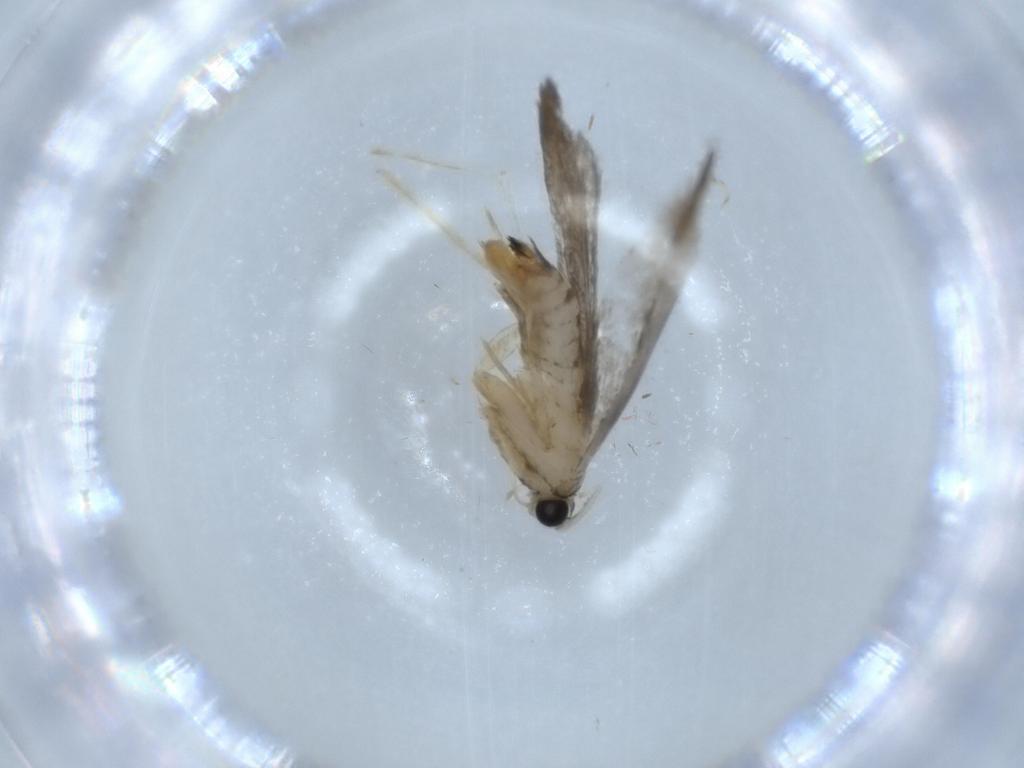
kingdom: Animalia
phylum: Arthropoda
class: Insecta
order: Lepidoptera
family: Tineidae
